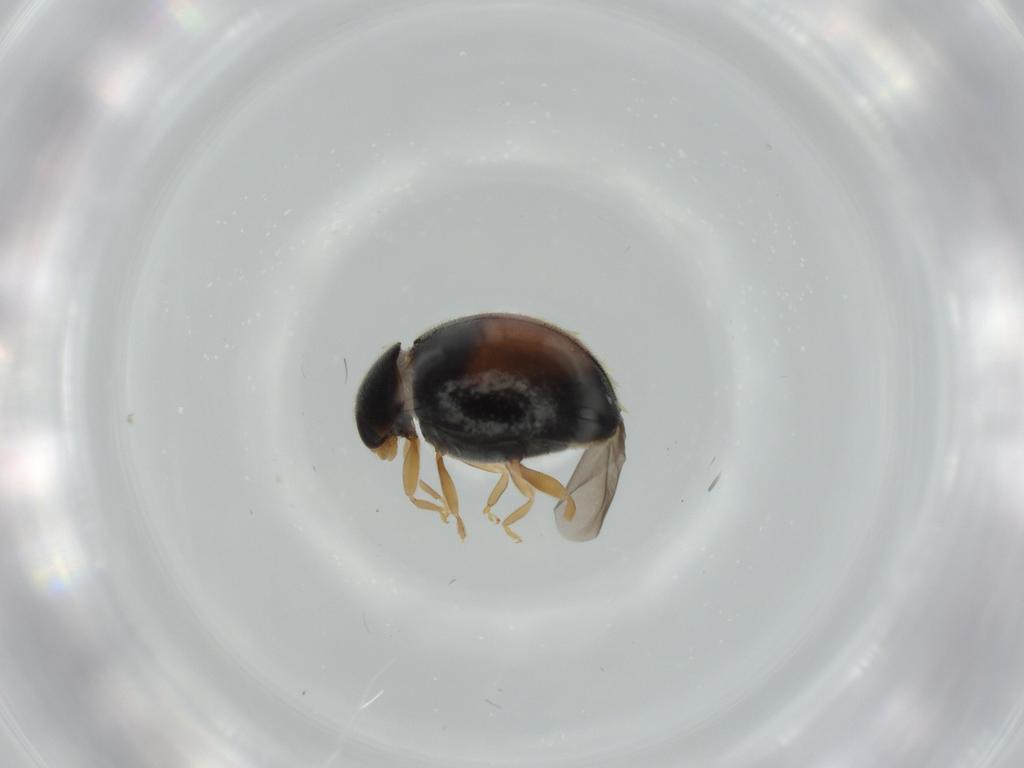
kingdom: Animalia
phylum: Arthropoda
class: Insecta
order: Coleoptera
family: Coccinellidae
